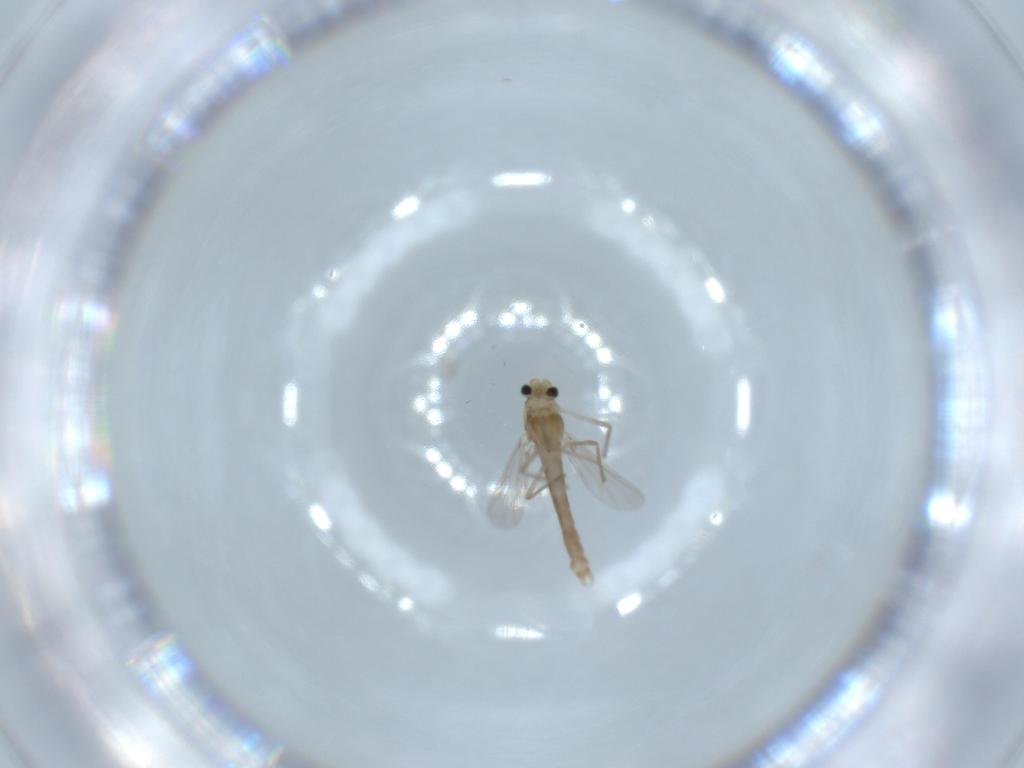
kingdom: Animalia
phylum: Arthropoda
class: Insecta
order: Diptera
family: Chironomidae
